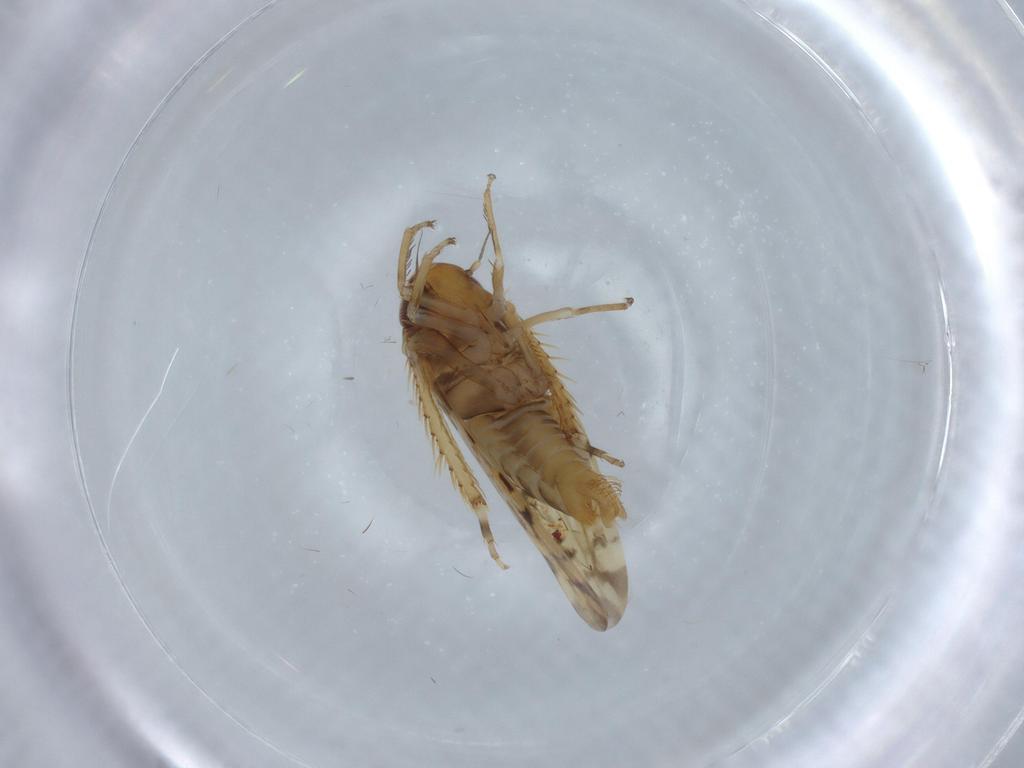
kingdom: Animalia
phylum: Arthropoda
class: Insecta
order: Hemiptera
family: Cicadellidae
